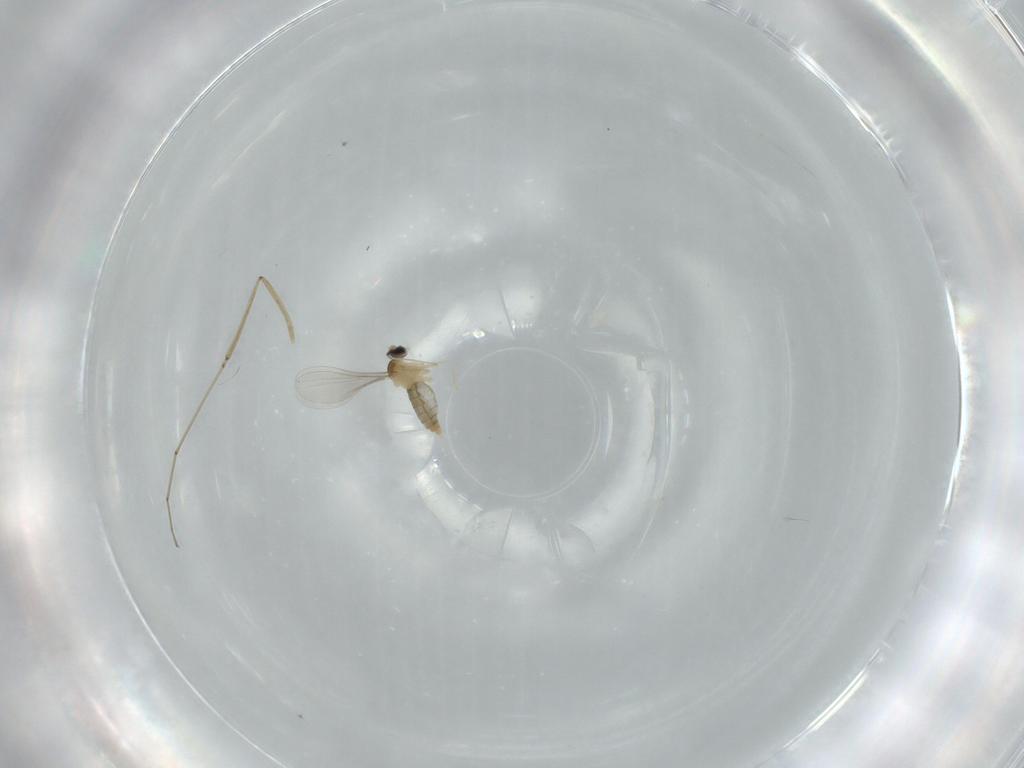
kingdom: Animalia
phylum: Arthropoda
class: Insecta
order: Diptera
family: Cecidomyiidae
